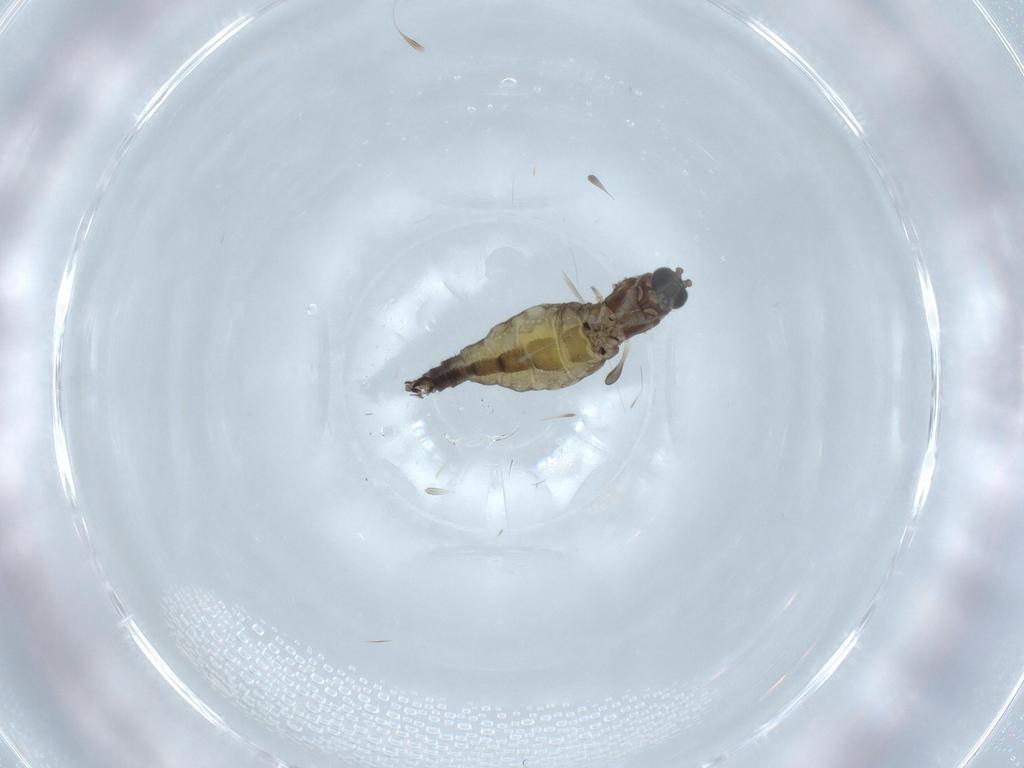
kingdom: Animalia
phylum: Arthropoda
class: Insecta
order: Diptera
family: Sciaridae
